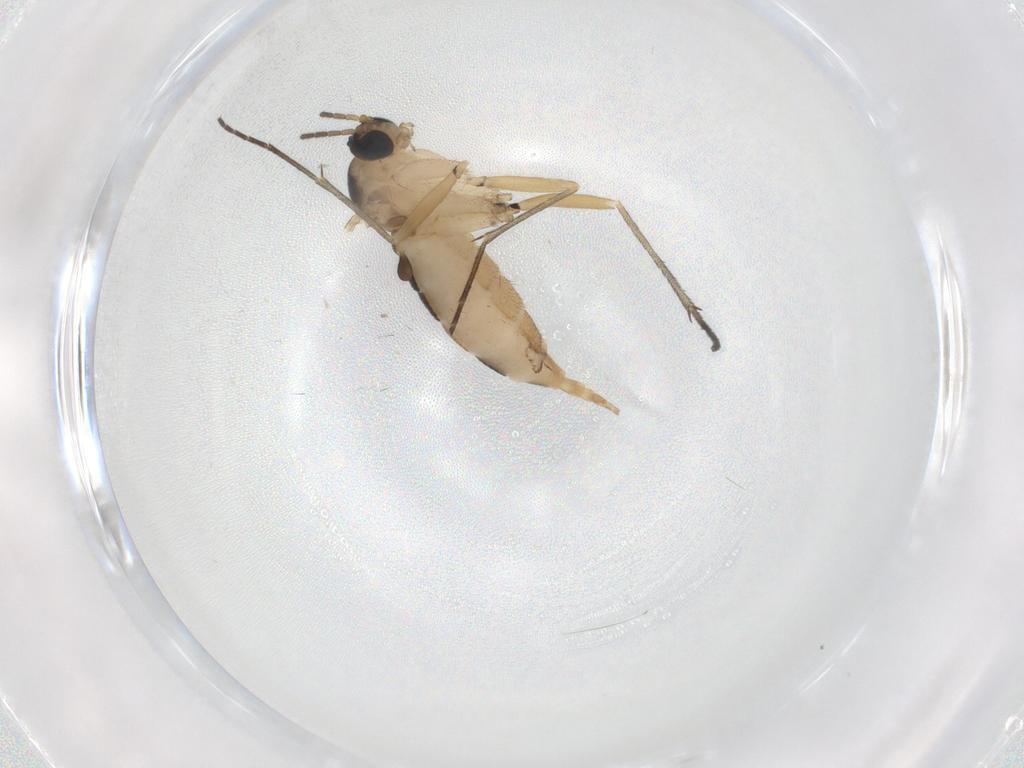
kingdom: Animalia
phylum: Arthropoda
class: Insecta
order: Diptera
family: Sciaridae
